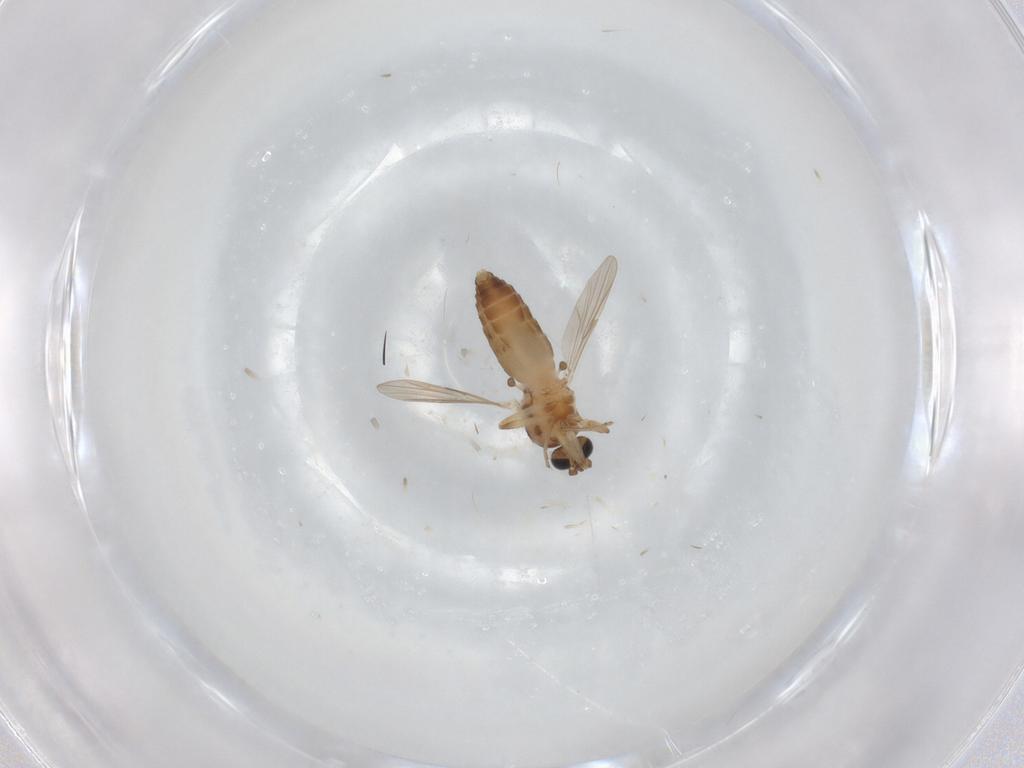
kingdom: Animalia
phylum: Arthropoda
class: Insecta
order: Diptera
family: Ceratopogonidae
